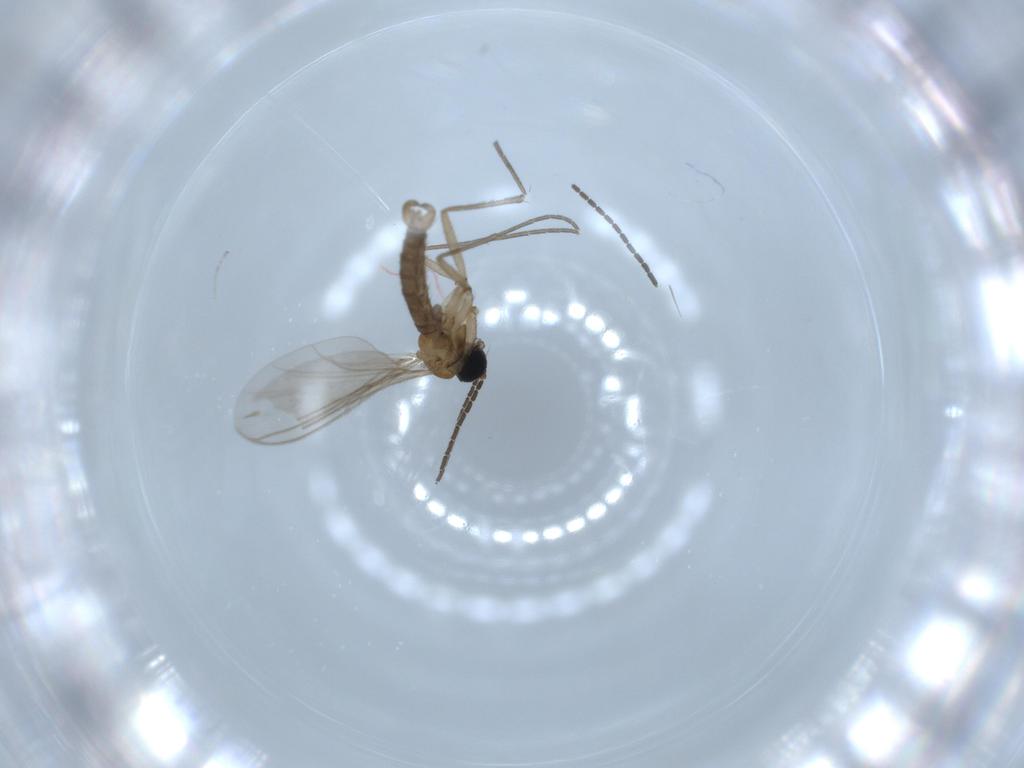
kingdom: Animalia
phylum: Arthropoda
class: Insecta
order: Diptera
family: Sciaridae
